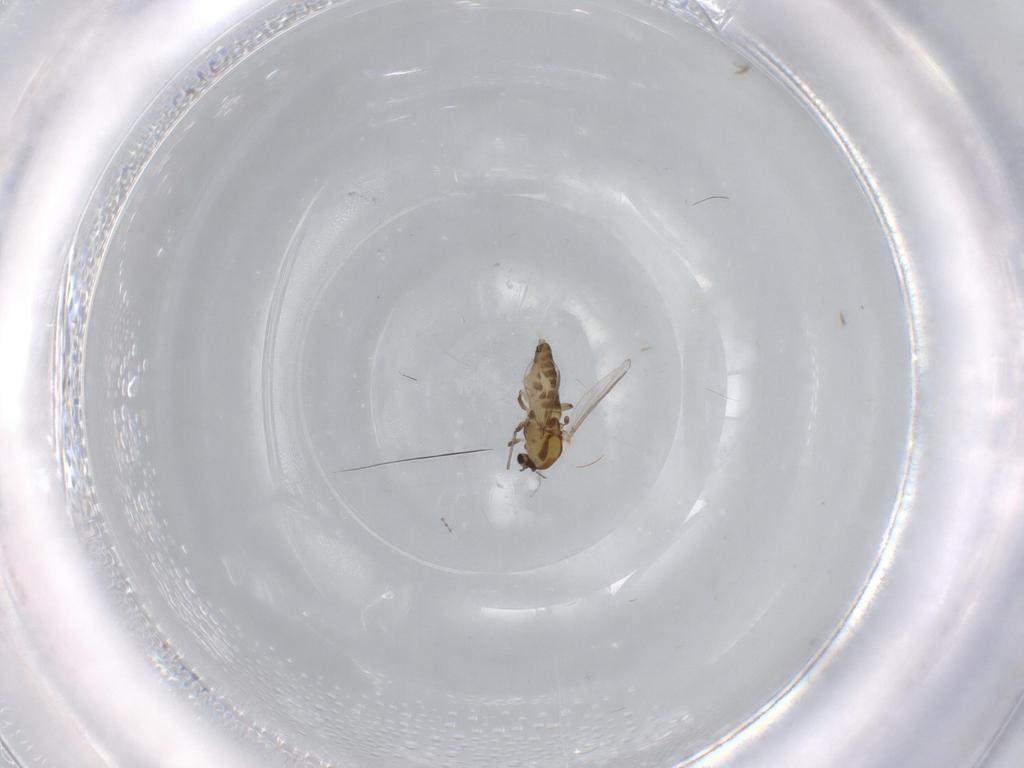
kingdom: Animalia
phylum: Arthropoda
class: Insecta
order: Diptera
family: Chironomidae
